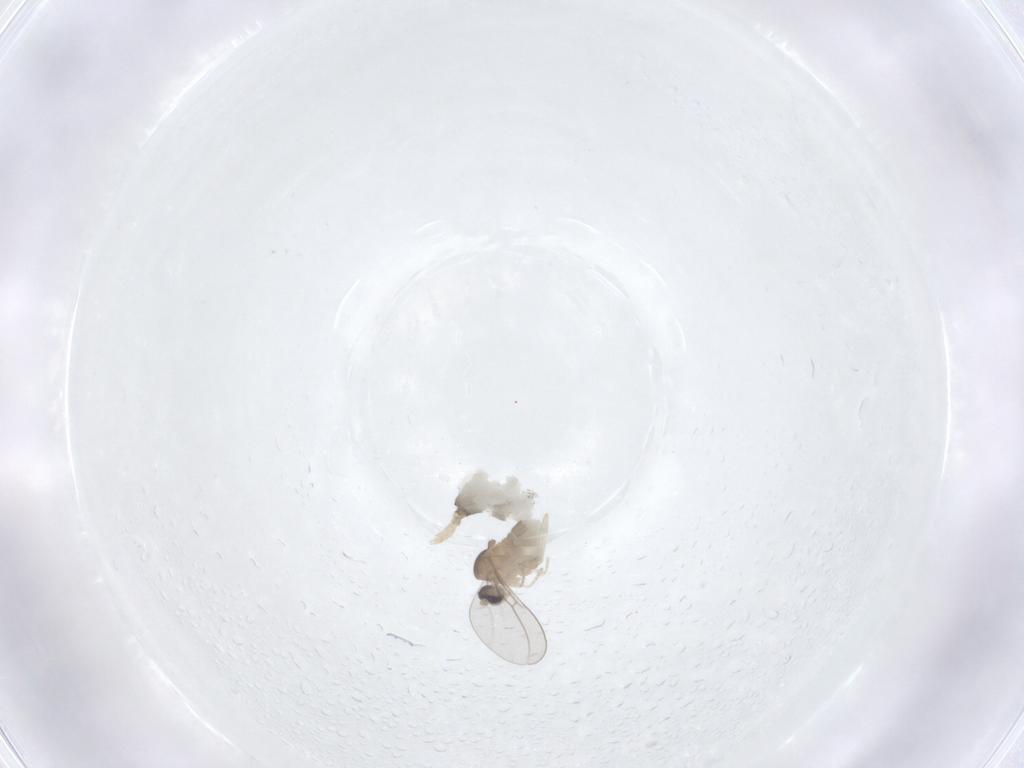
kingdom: Animalia
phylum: Arthropoda
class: Insecta
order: Diptera
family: Cecidomyiidae
